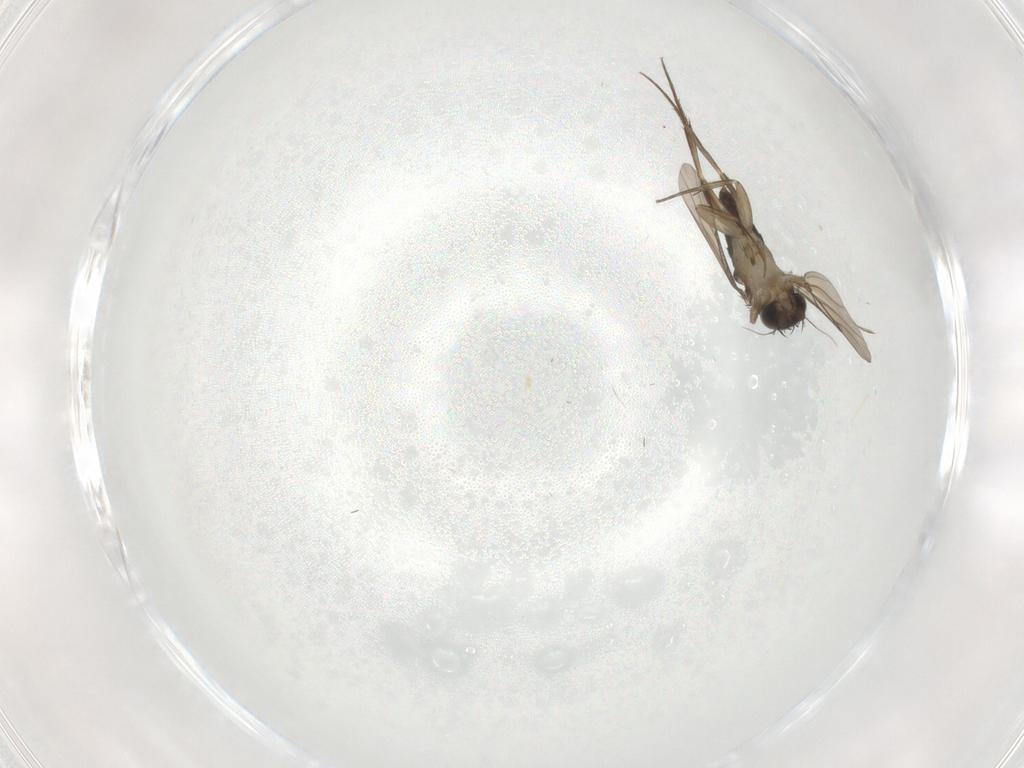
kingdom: Animalia
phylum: Arthropoda
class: Insecta
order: Diptera
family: Phoridae
